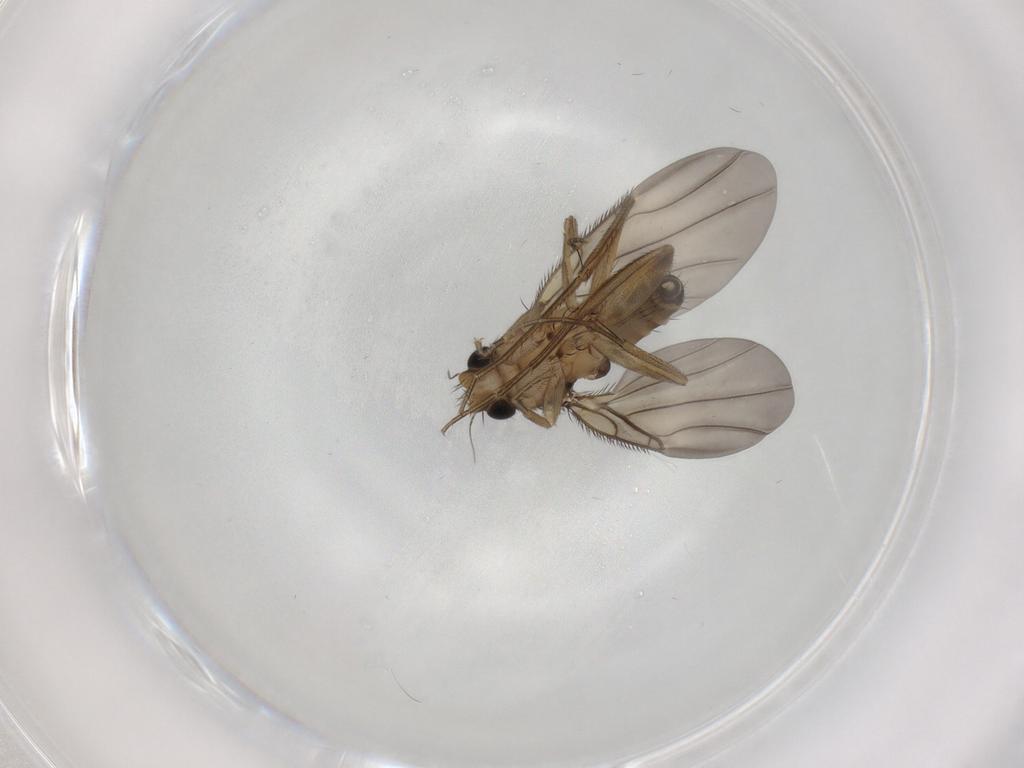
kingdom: Animalia
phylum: Arthropoda
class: Insecta
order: Diptera
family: Phoridae
